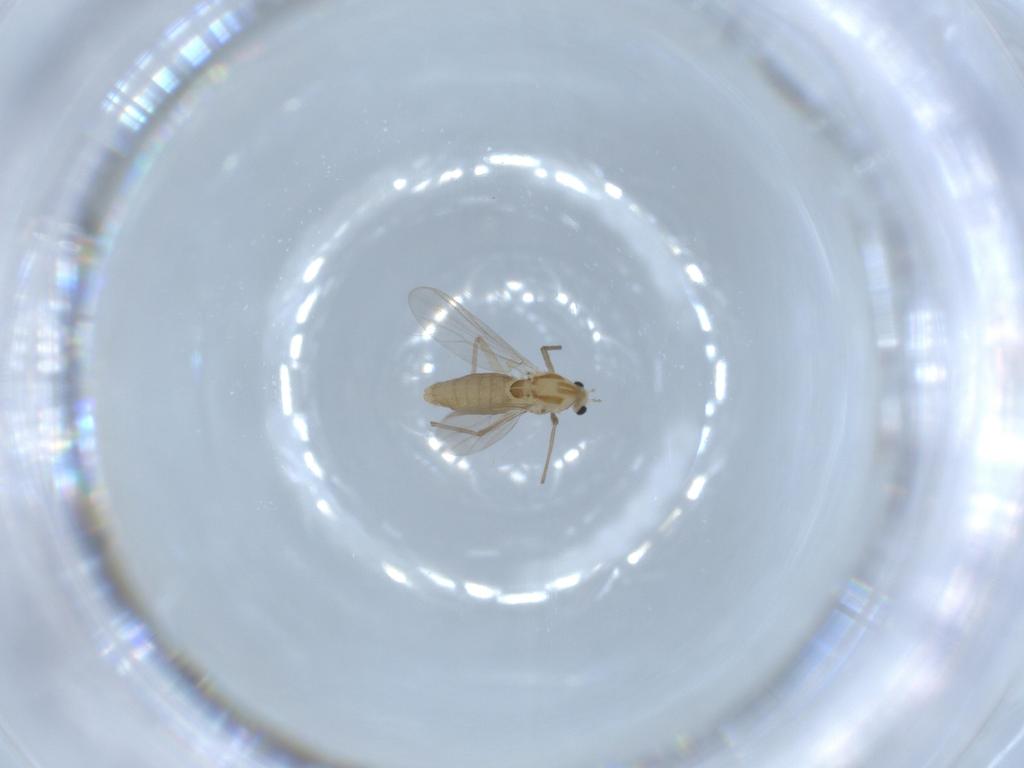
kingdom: Animalia
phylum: Arthropoda
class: Insecta
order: Diptera
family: Chironomidae
